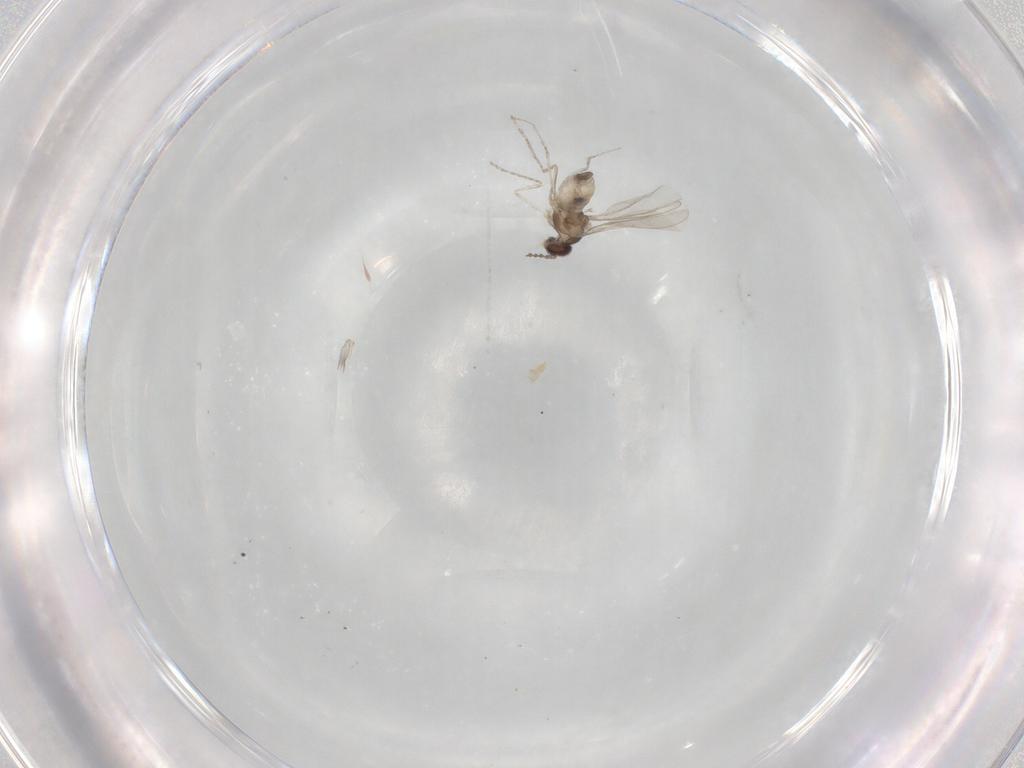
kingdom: Animalia
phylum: Arthropoda
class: Insecta
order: Diptera
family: Cecidomyiidae
